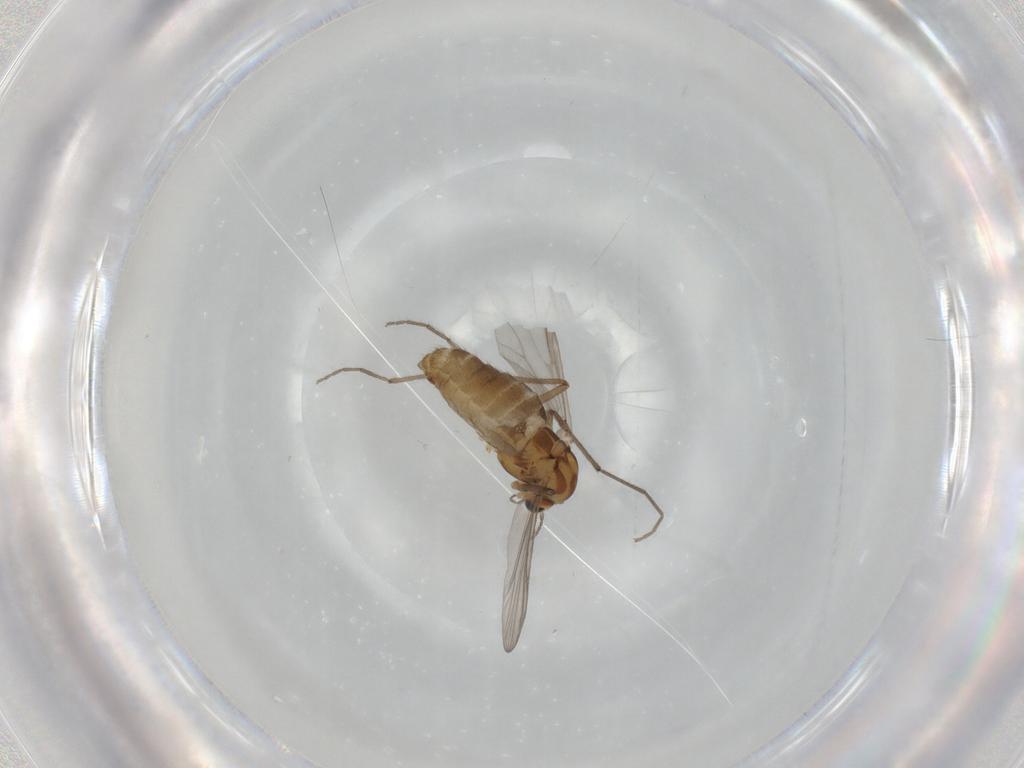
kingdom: Animalia
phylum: Arthropoda
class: Insecta
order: Diptera
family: Chironomidae
